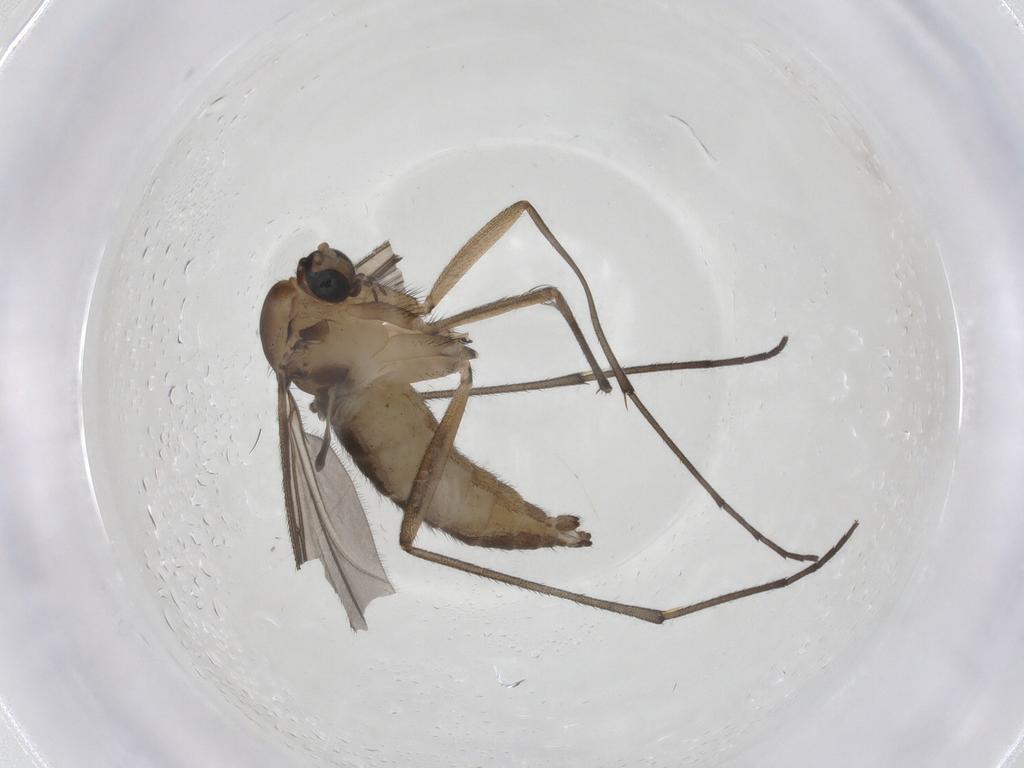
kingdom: Animalia
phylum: Arthropoda
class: Insecta
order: Diptera
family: Sciaridae
